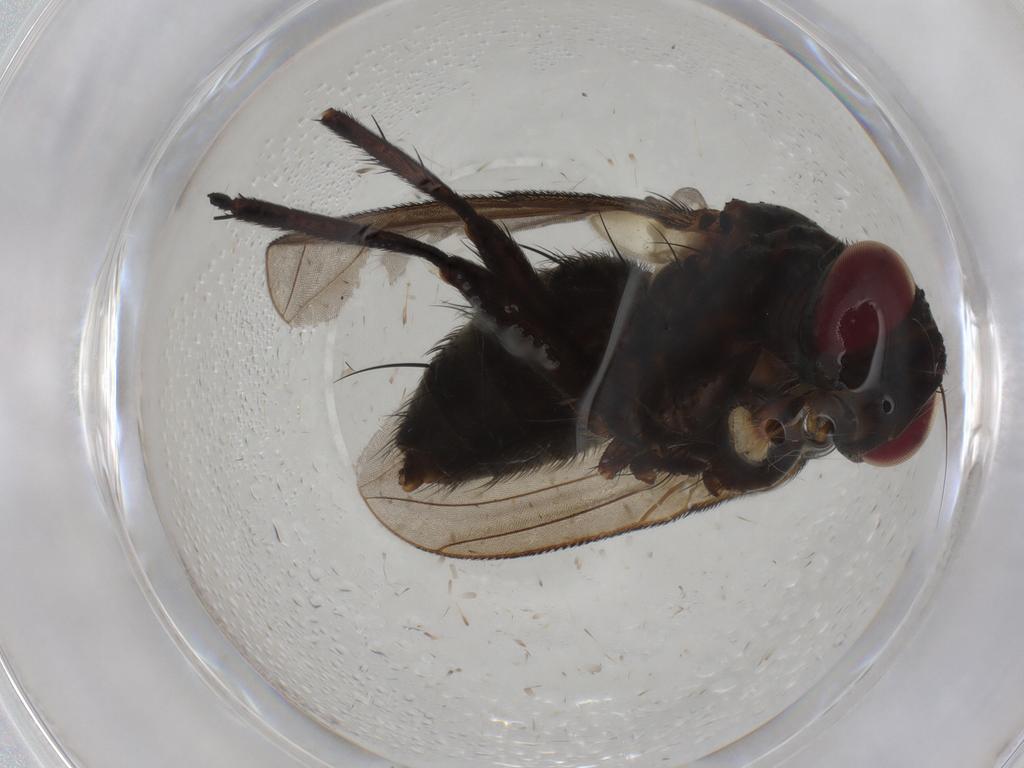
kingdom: Animalia
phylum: Arthropoda
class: Insecta
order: Diptera
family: Tachinidae
